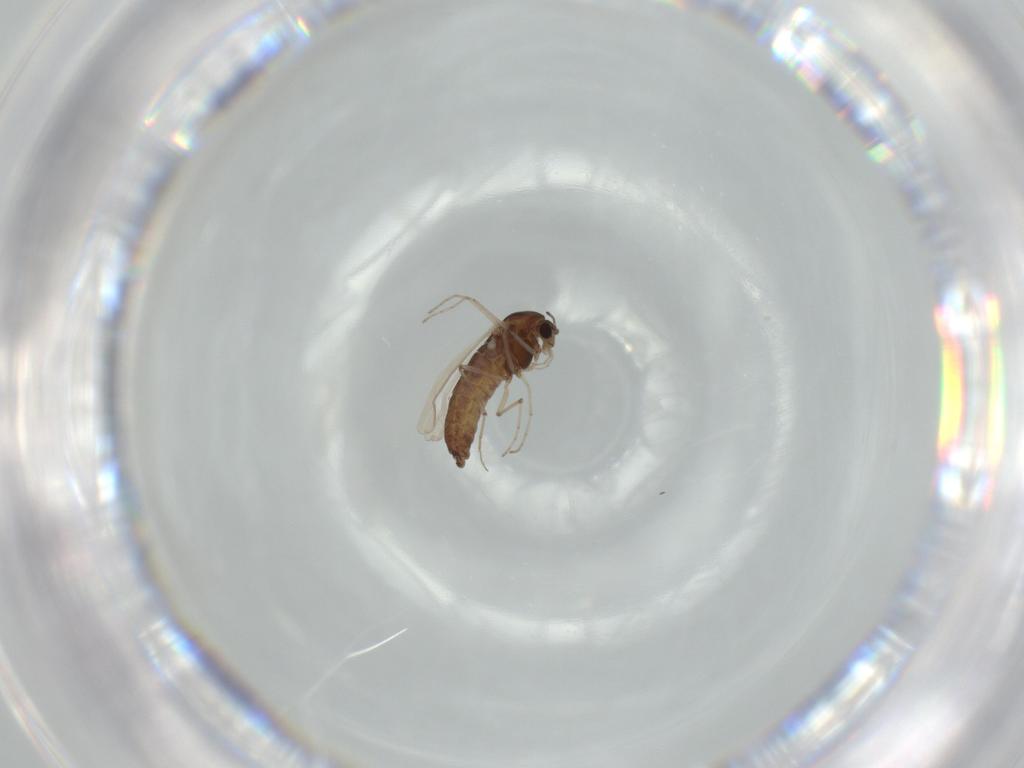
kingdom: Animalia
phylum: Arthropoda
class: Insecta
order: Diptera
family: Chironomidae
